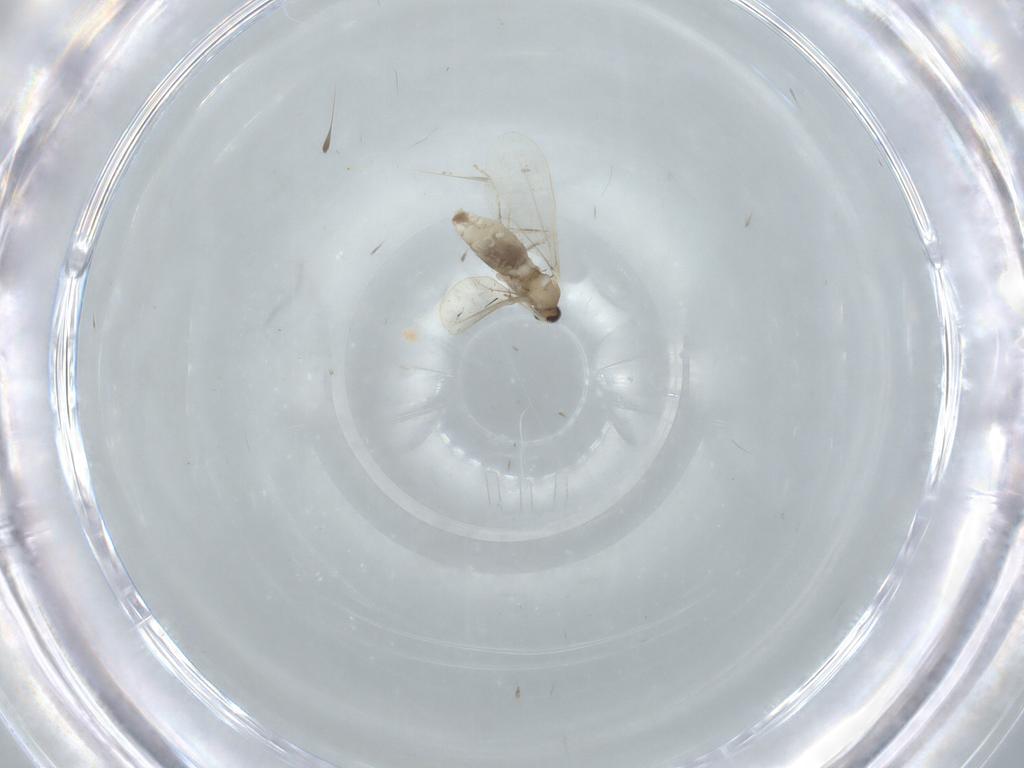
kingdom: Animalia
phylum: Arthropoda
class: Insecta
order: Diptera
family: Cecidomyiidae
